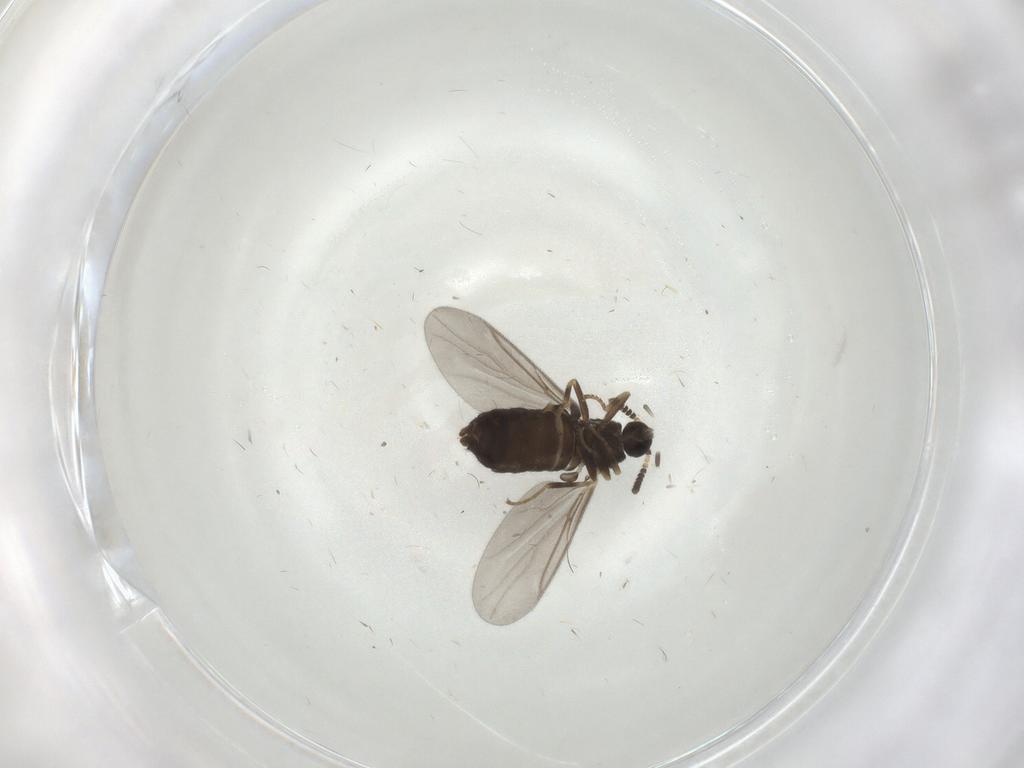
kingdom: Animalia
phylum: Arthropoda
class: Insecta
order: Diptera
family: Scatopsidae
